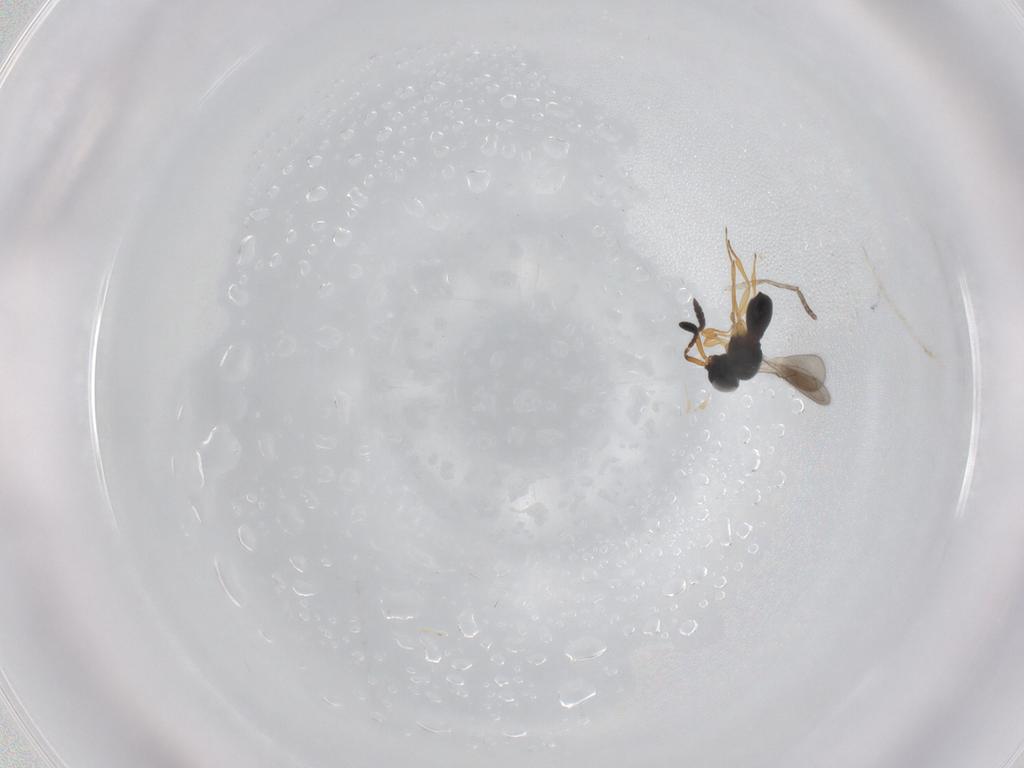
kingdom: Animalia
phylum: Arthropoda
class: Insecta
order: Hymenoptera
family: Scelionidae
